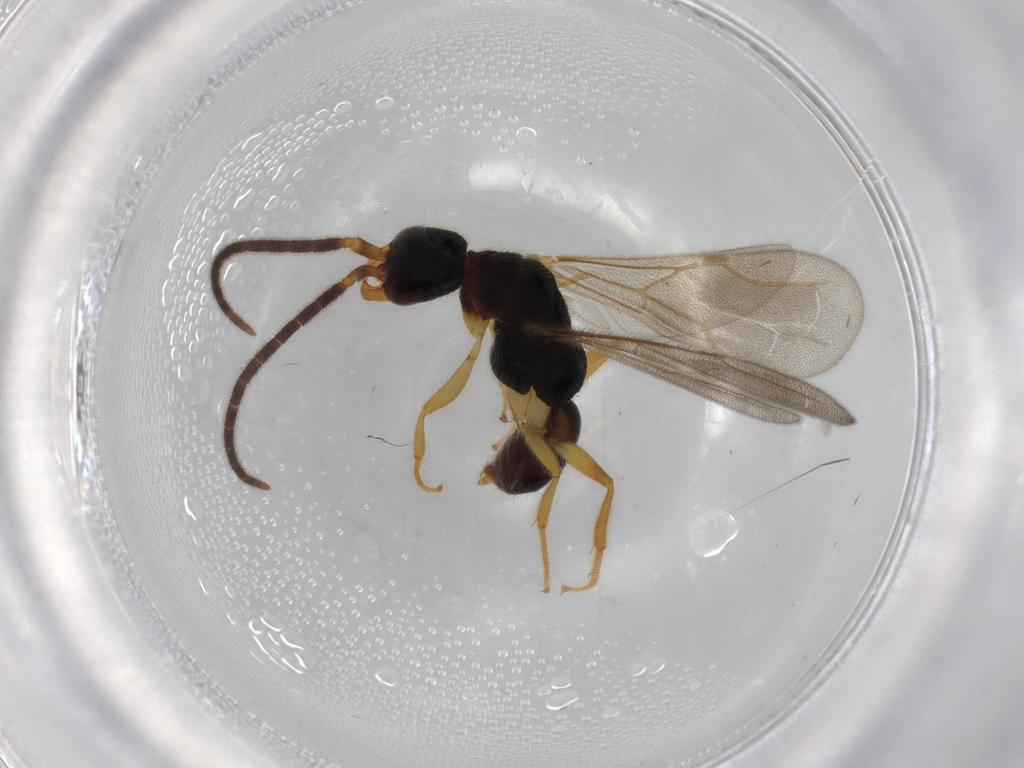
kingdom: Animalia
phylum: Arthropoda
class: Insecta
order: Hymenoptera
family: Bethylidae
